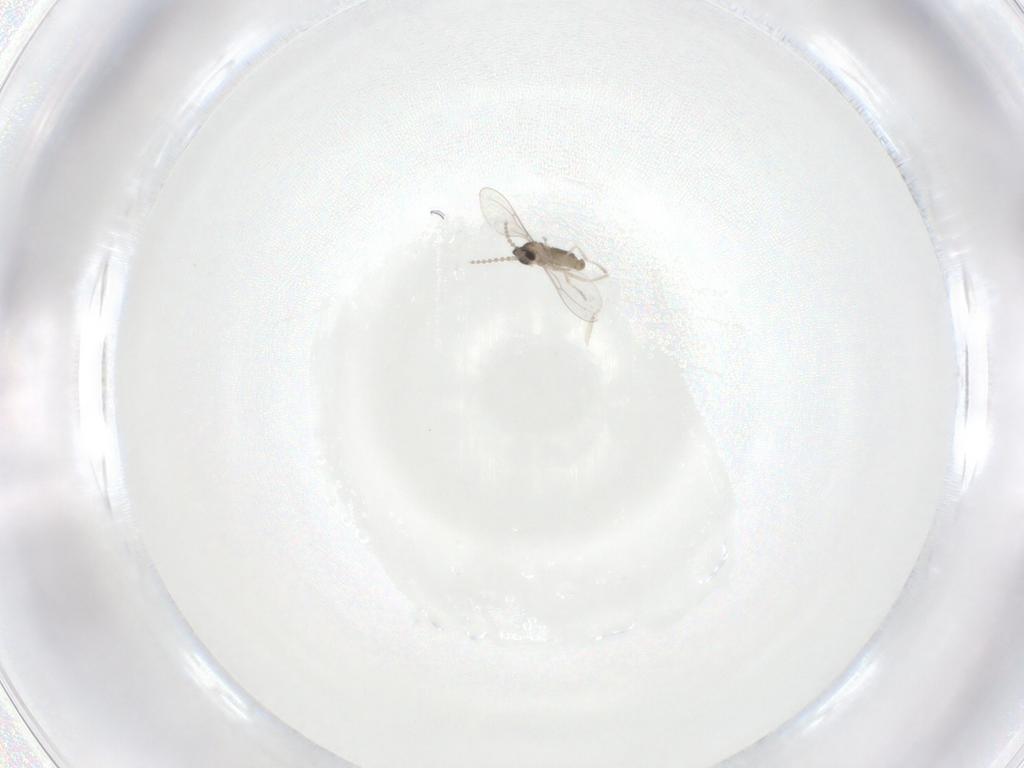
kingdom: Animalia
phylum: Arthropoda
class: Insecta
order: Diptera
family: Cecidomyiidae
